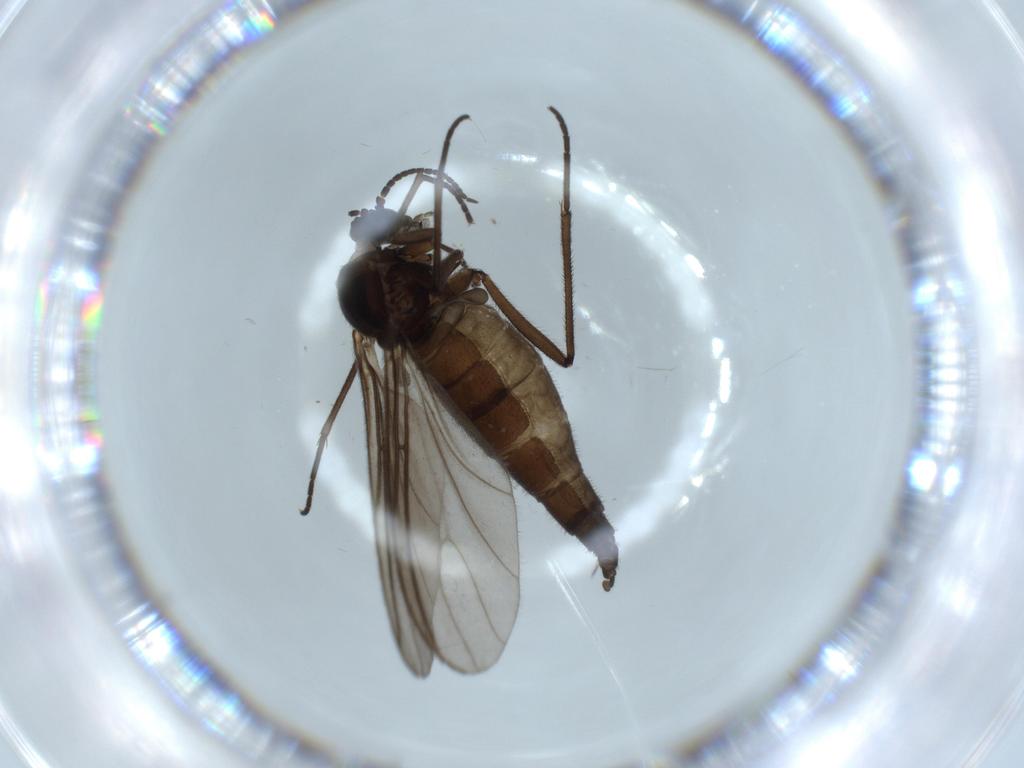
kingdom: Animalia
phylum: Arthropoda
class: Insecta
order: Diptera
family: Sciaridae
